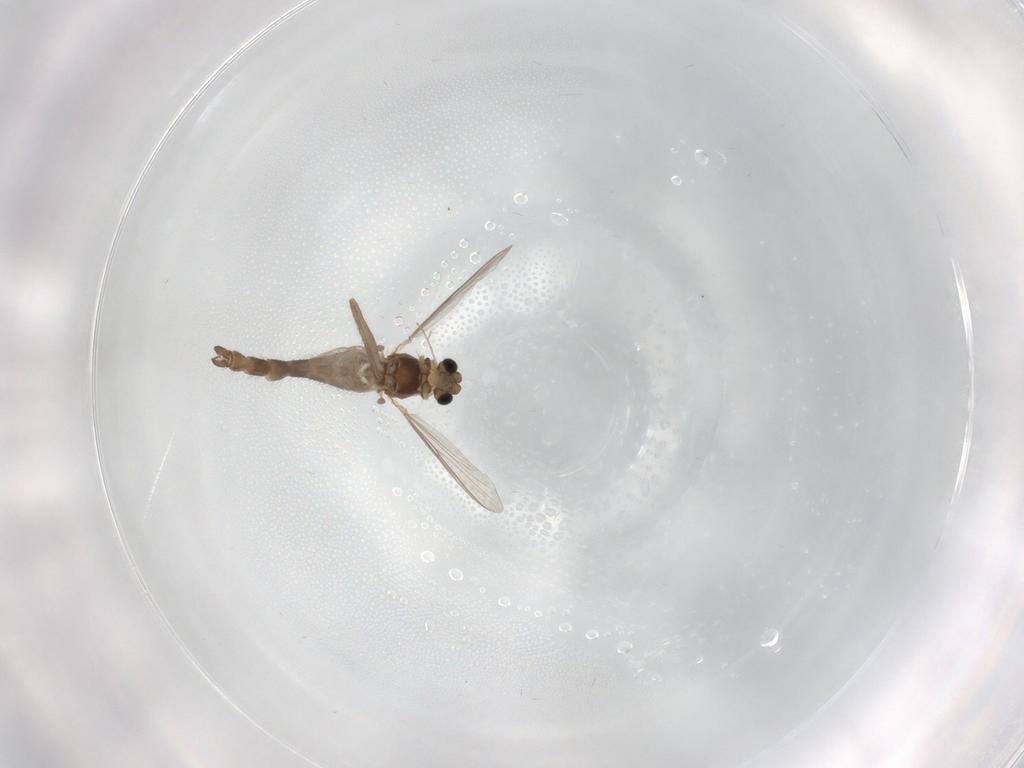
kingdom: Animalia
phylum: Arthropoda
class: Insecta
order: Diptera
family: Chironomidae
